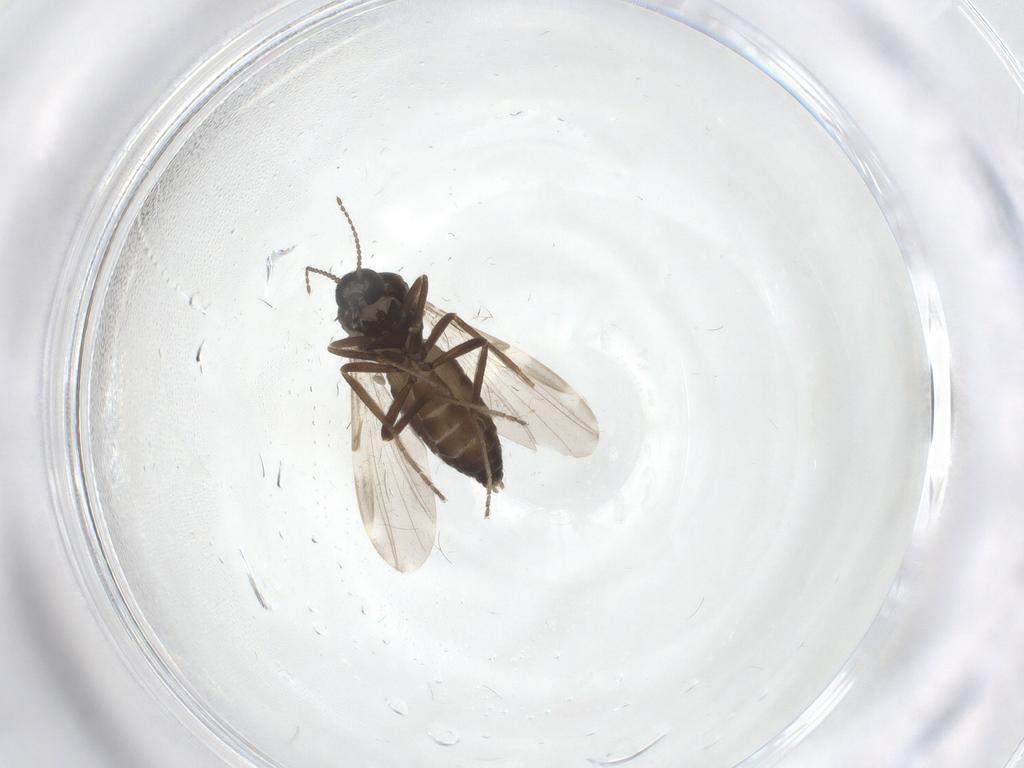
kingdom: Animalia
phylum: Arthropoda
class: Insecta
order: Diptera
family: Ceratopogonidae
